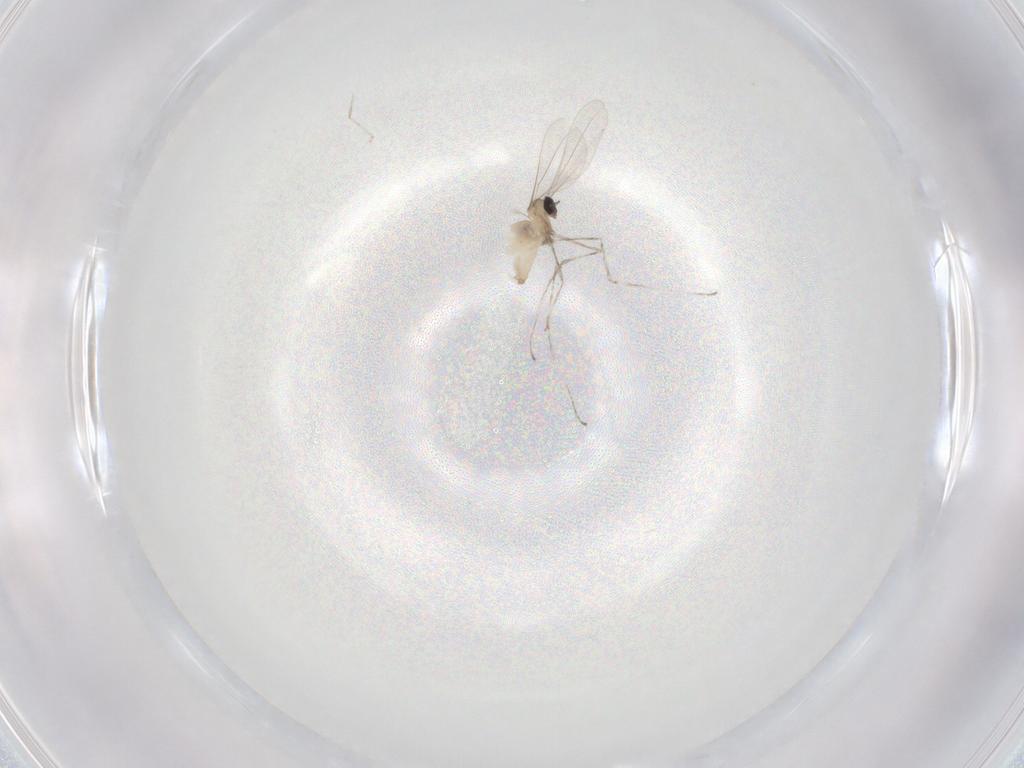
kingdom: Animalia
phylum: Arthropoda
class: Insecta
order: Diptera
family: Cecidomyiidae
